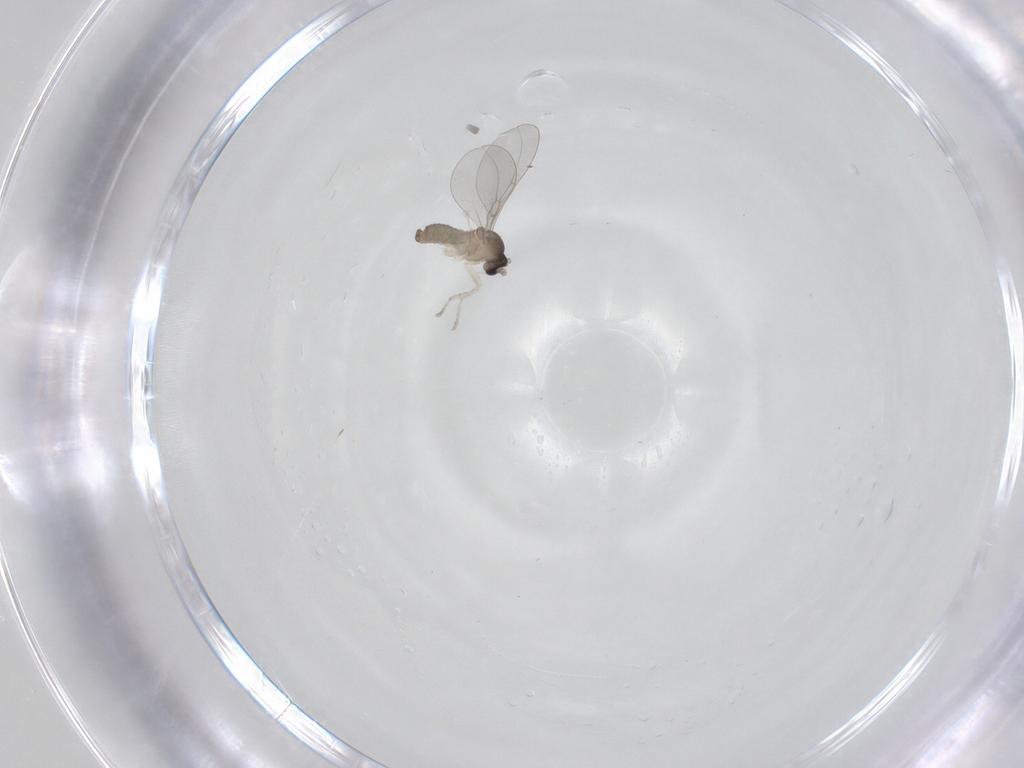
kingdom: Animalia
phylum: Arthropoda
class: Insecta
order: Diptera
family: Cecidomyiidae
